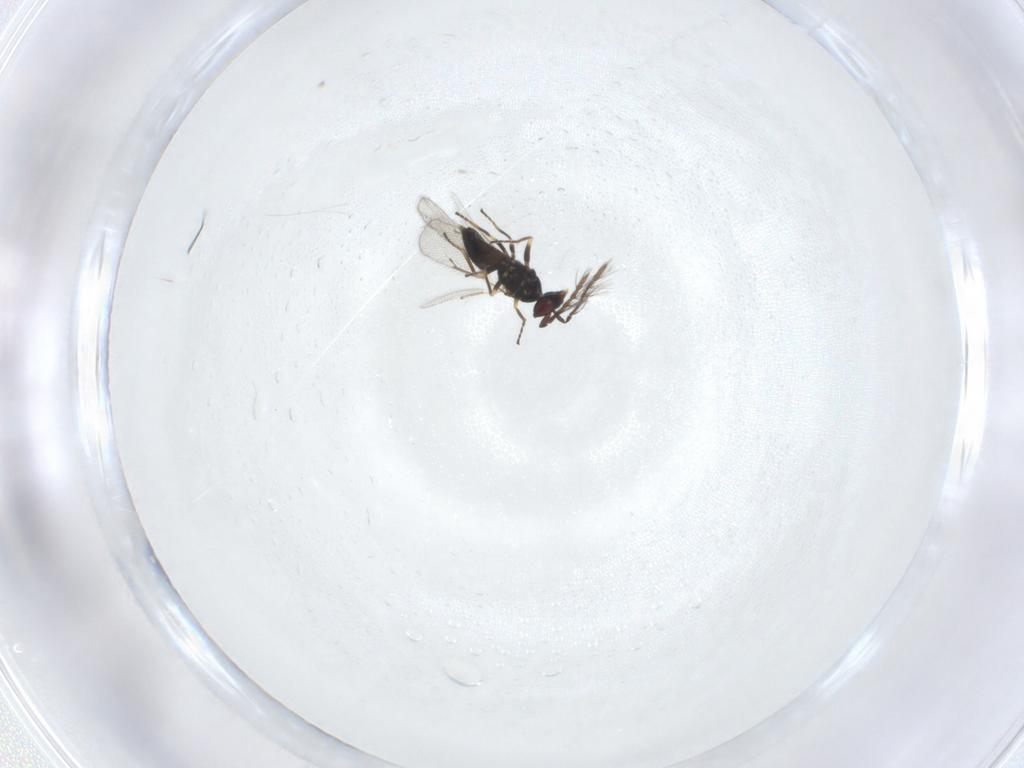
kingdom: Animalia
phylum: Arthropoda
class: Insecta
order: Hymenoptera
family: Eulophidae
